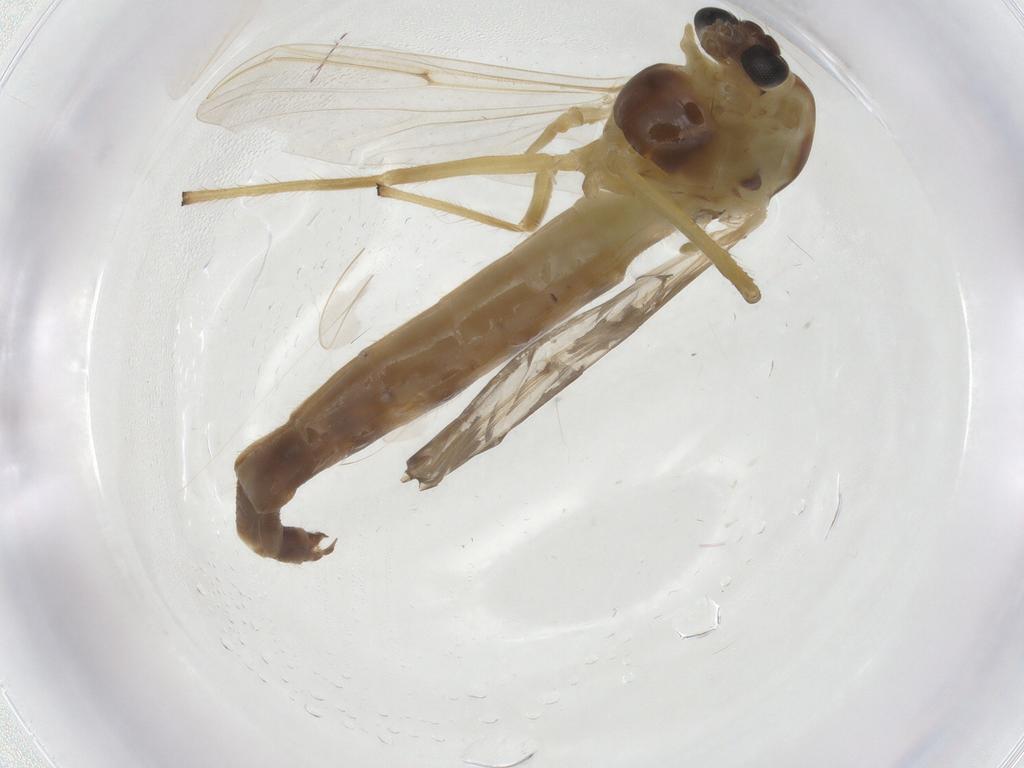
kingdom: Animalia
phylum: Arthropoda
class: Insecta
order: Diptera
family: Chironomidae
